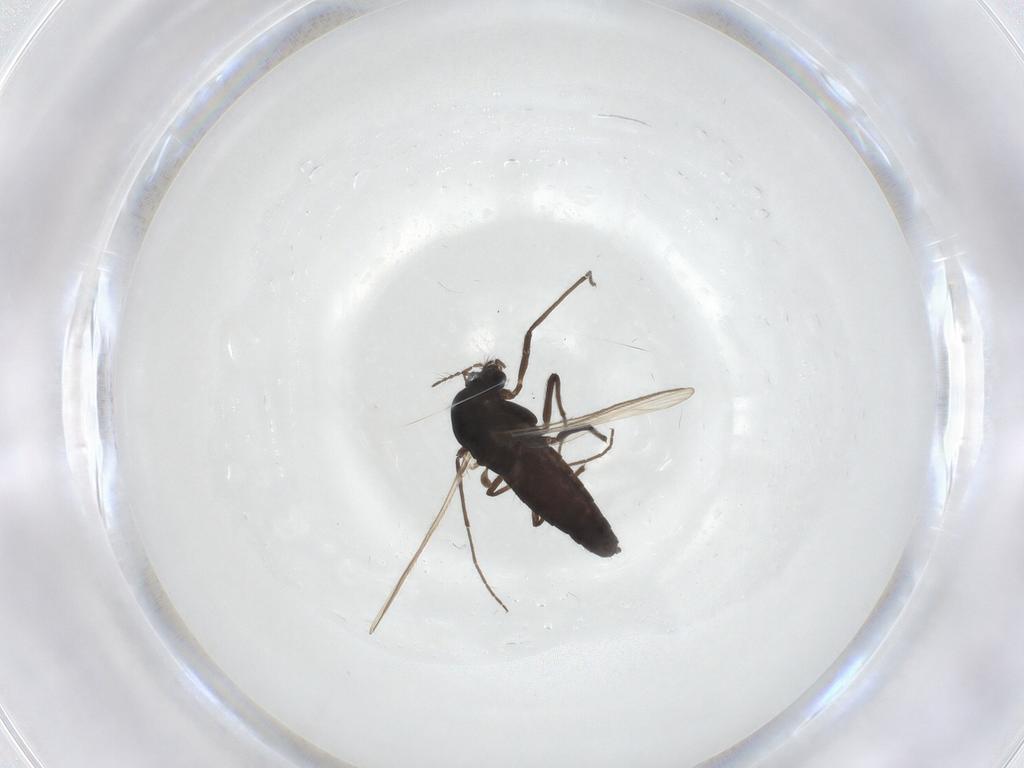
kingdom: Animalia
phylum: Arthropoda
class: Insecta
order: Diptera
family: Chironomidae
